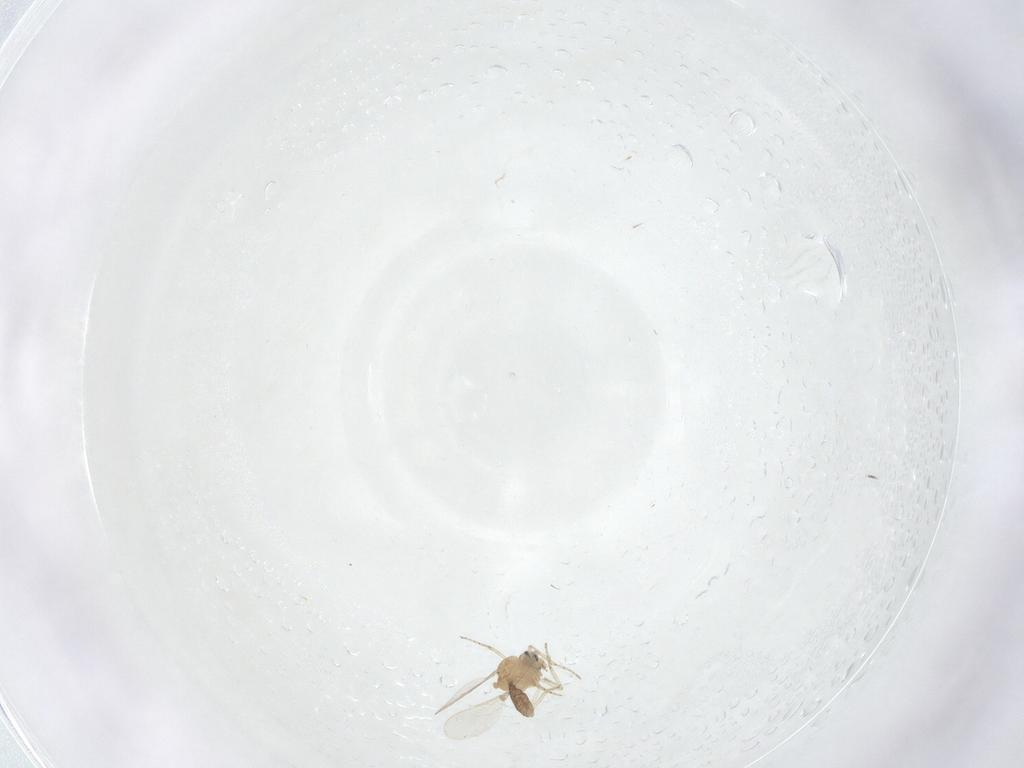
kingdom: Animalia
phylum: Arthropoda
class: Insecta
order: Diptera
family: Ceratopogonidae
